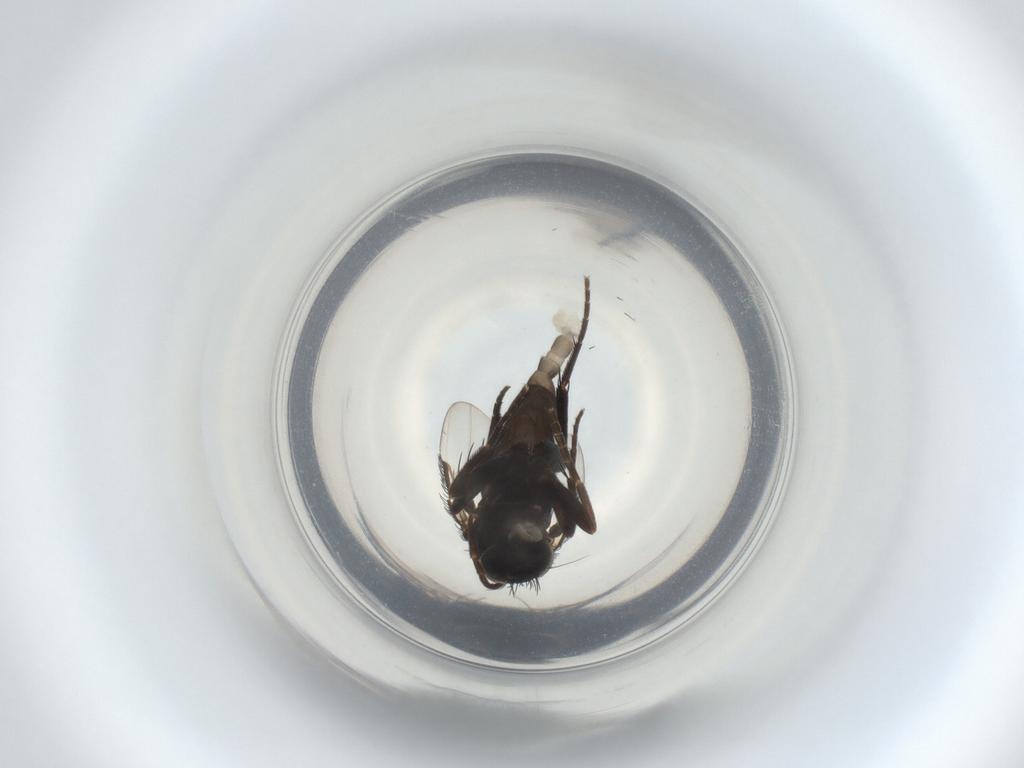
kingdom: Animalia
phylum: Arthropoda
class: Insecta
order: Diptera
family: Phoridae
